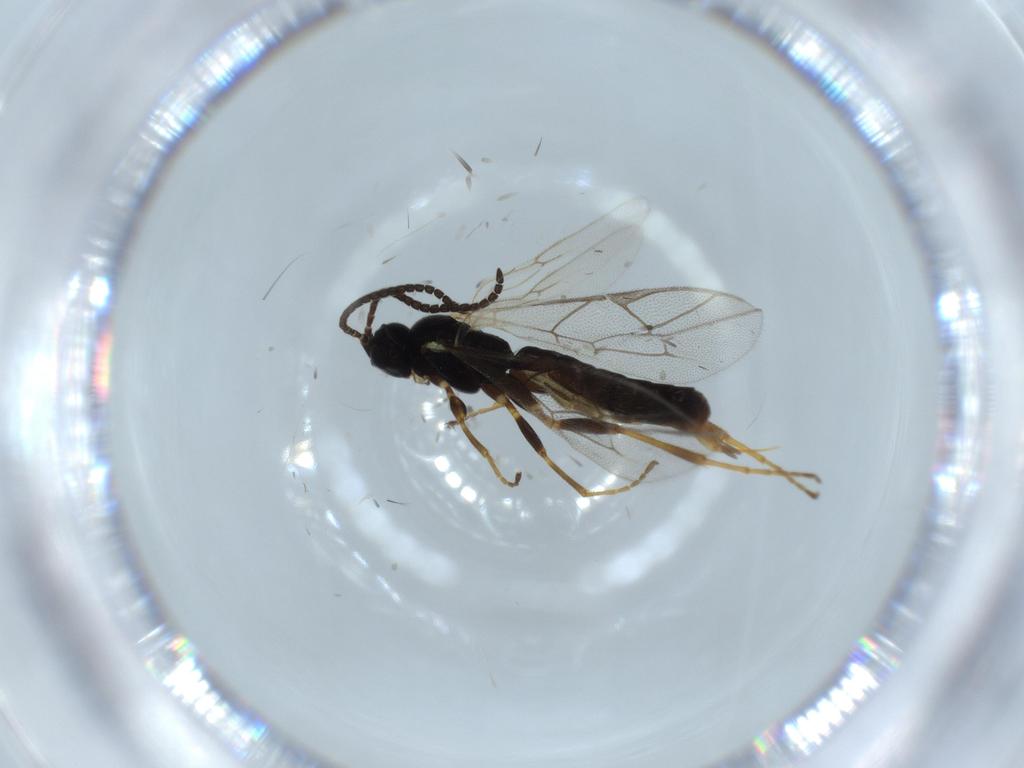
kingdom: Animalia
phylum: Arthropoda
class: Insecta
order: Hymenoptera
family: Ichneumonidae
